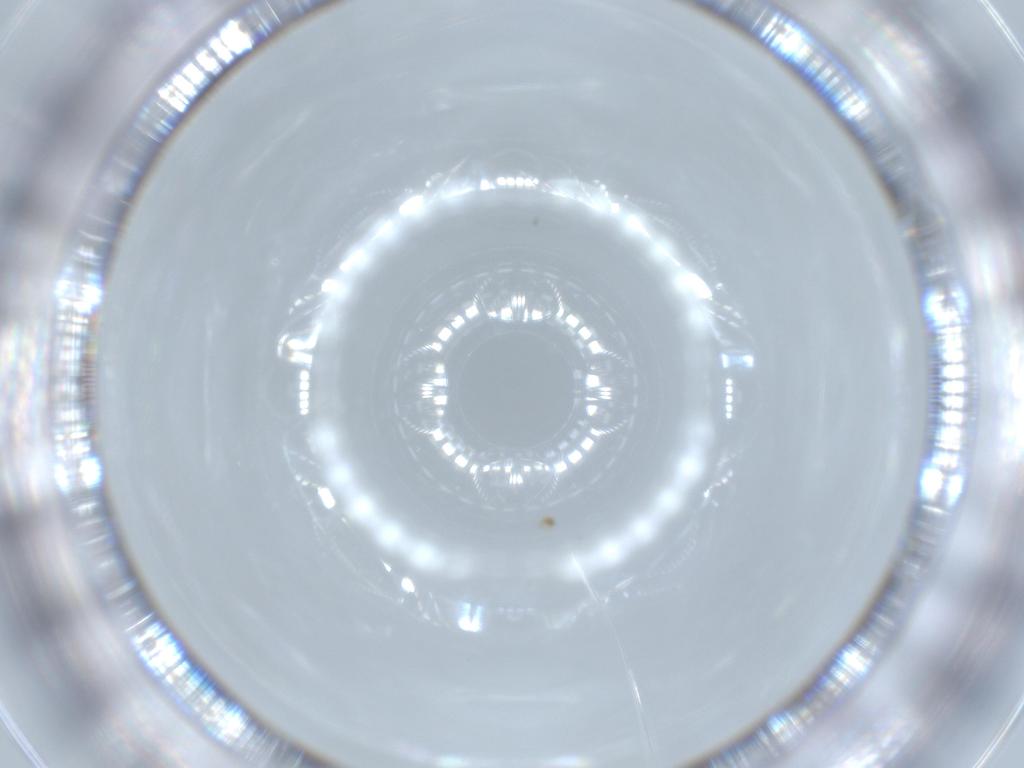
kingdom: Animalia
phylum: Arthropoda
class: Insecta
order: Diptera
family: Cecidomyiidae
